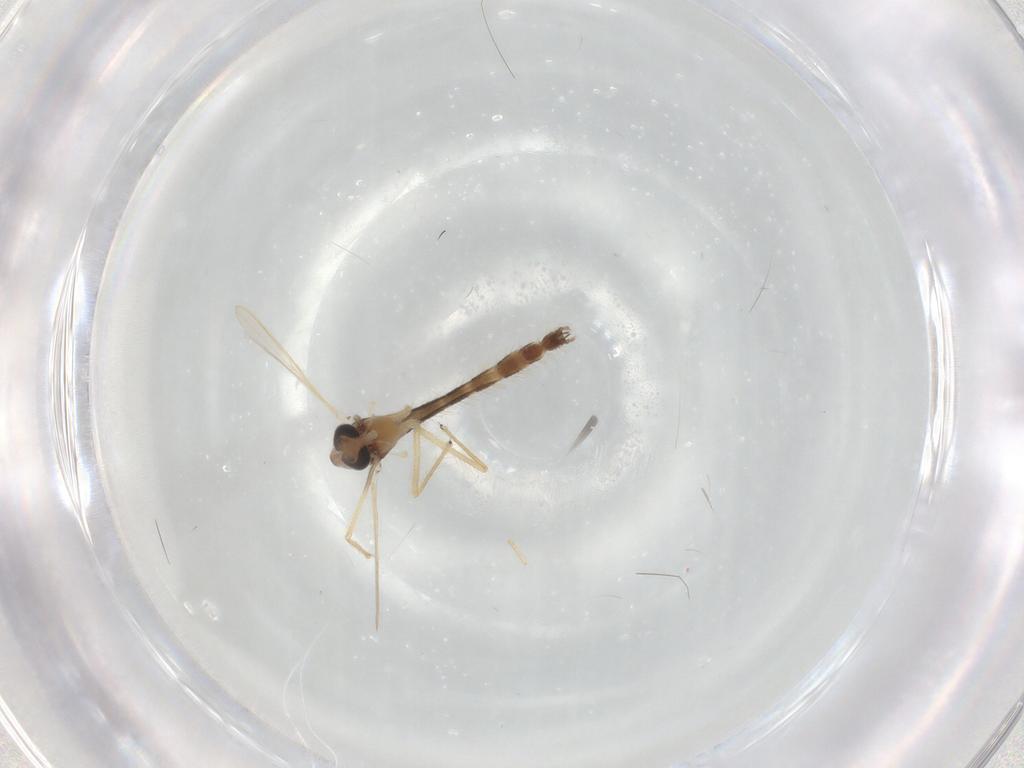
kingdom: Animalia
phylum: Arthropoda
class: Insecta
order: Diptera
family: Chironomidae
